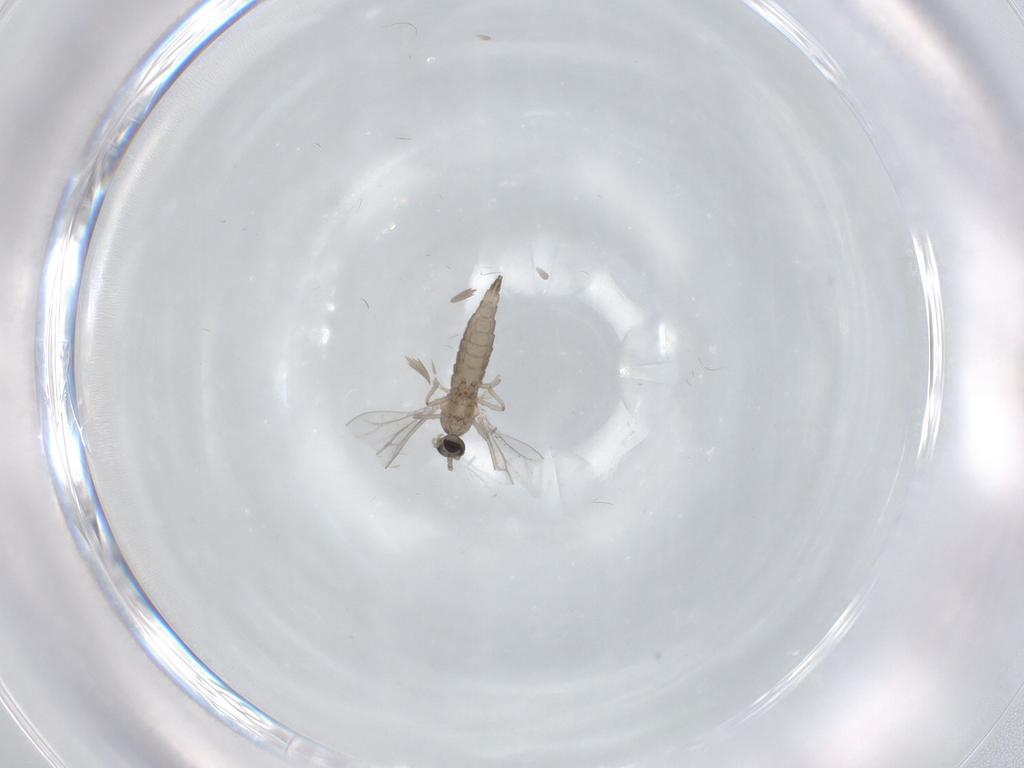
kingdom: Animalia
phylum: Arthropoda
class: Insecta
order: Diptera
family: Cecidomyiidae
